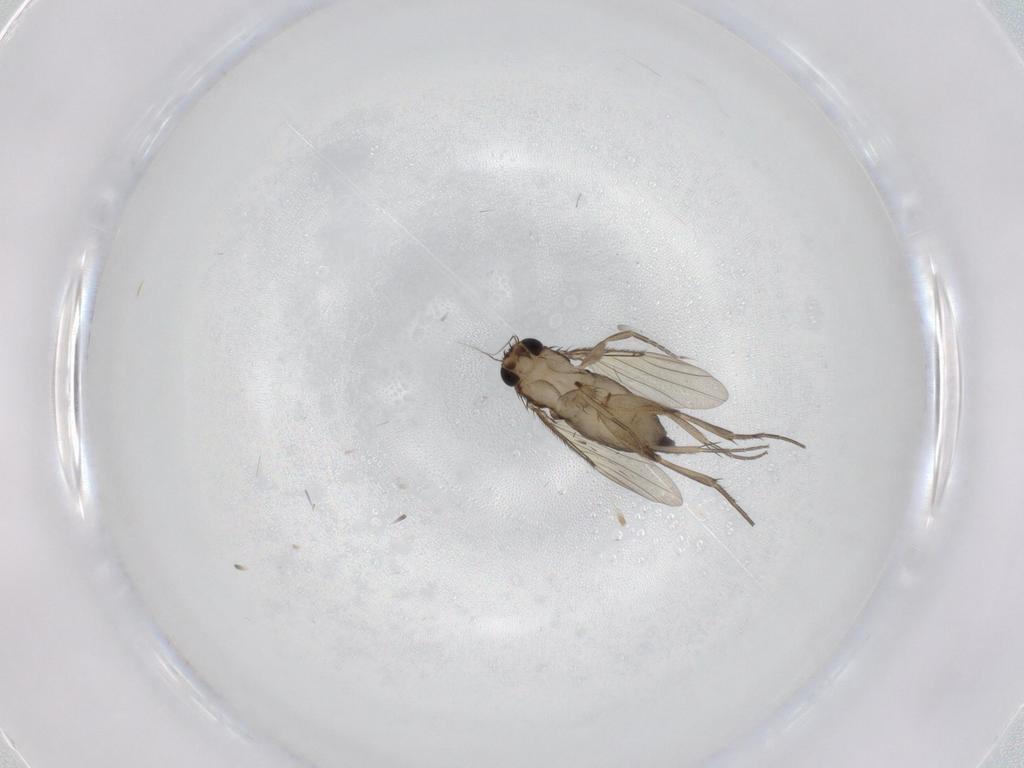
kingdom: Animalia
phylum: Arthropoda
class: Insecta
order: Diptera
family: Phoridae
